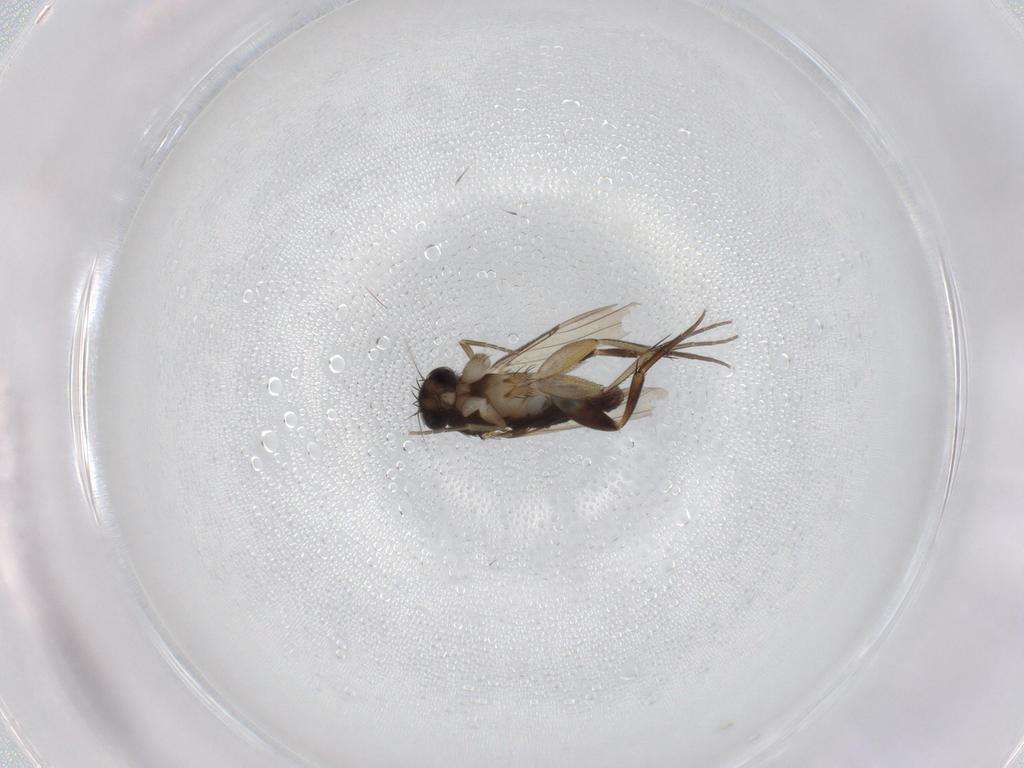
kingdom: Animalia
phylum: Arthropoda
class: Insecta
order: Diptera
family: Phoridae
